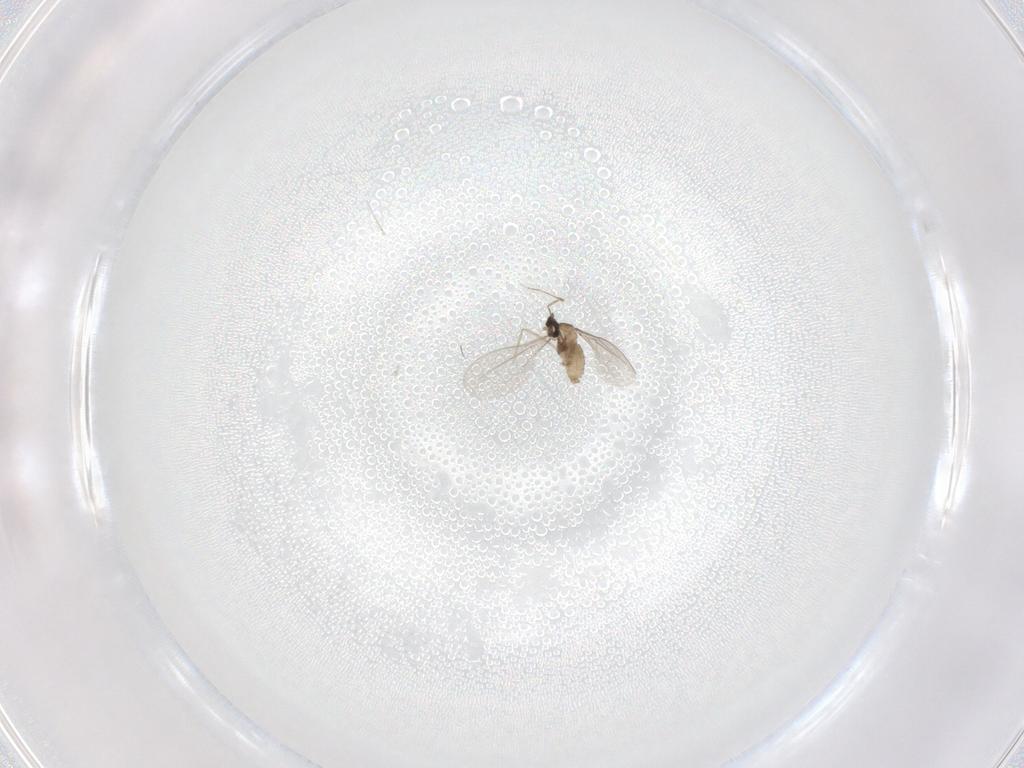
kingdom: Animalia
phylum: Arthropoda
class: Insecta
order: Diptera
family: Cecidomyiidae
